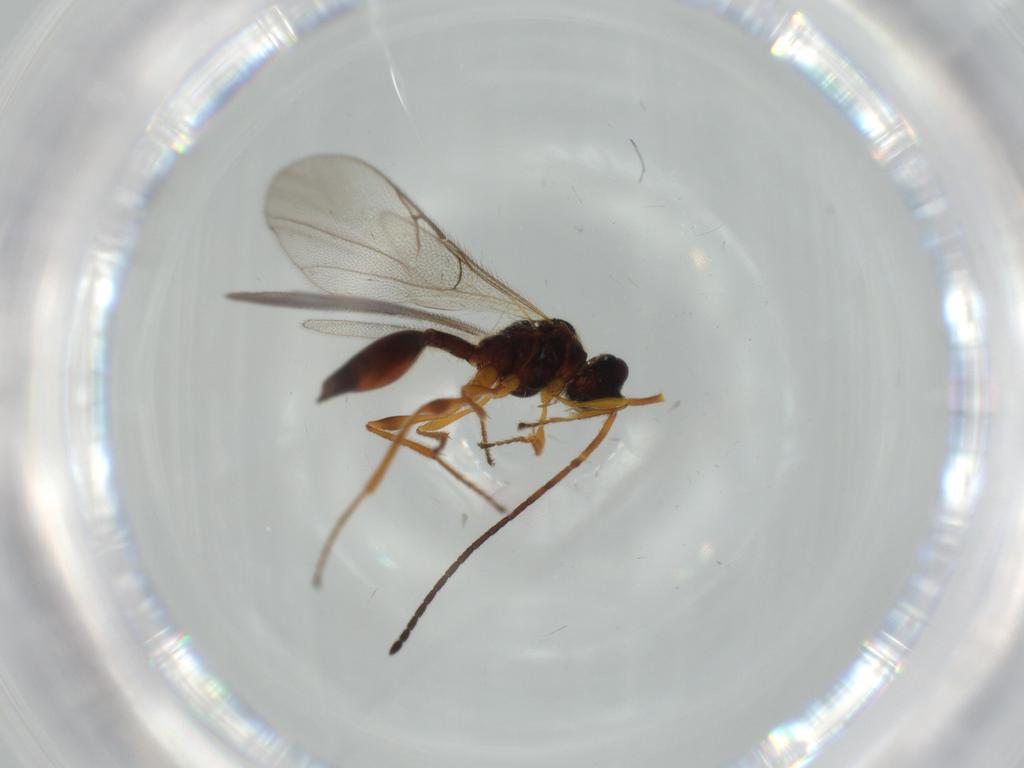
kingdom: Animalia
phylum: Arthropoda
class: Insecta
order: Hymenoptera
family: Diapriidae
